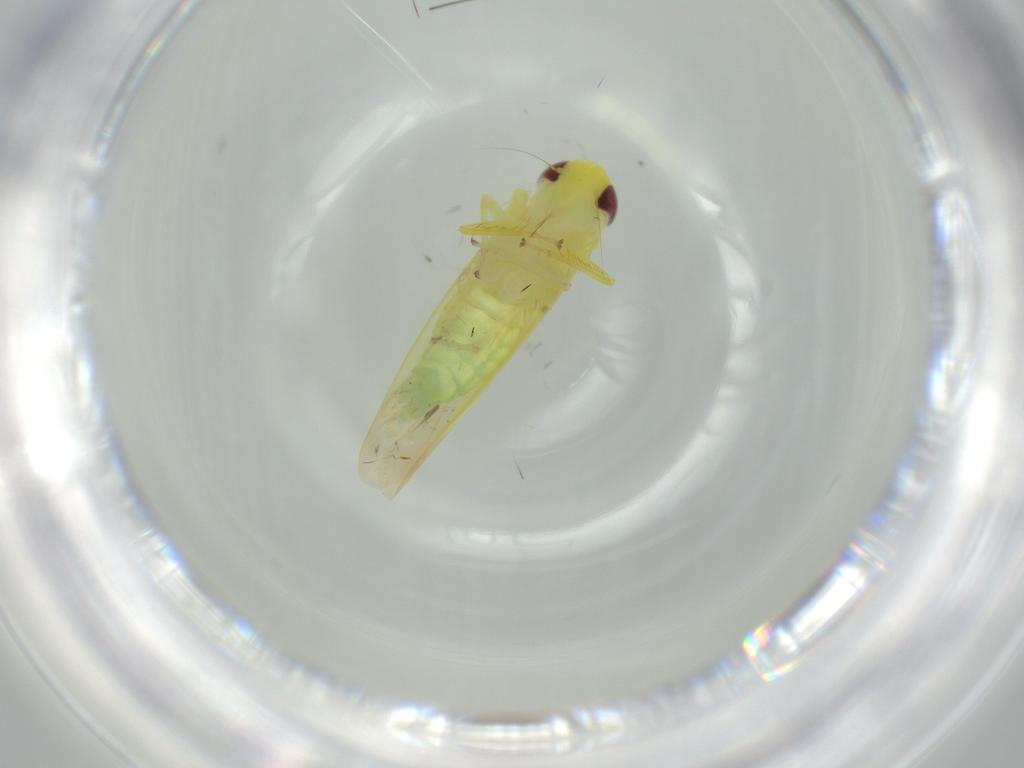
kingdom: Animalia
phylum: Arthropoda
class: Insecta
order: Hemiptera
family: Cicadellidae
